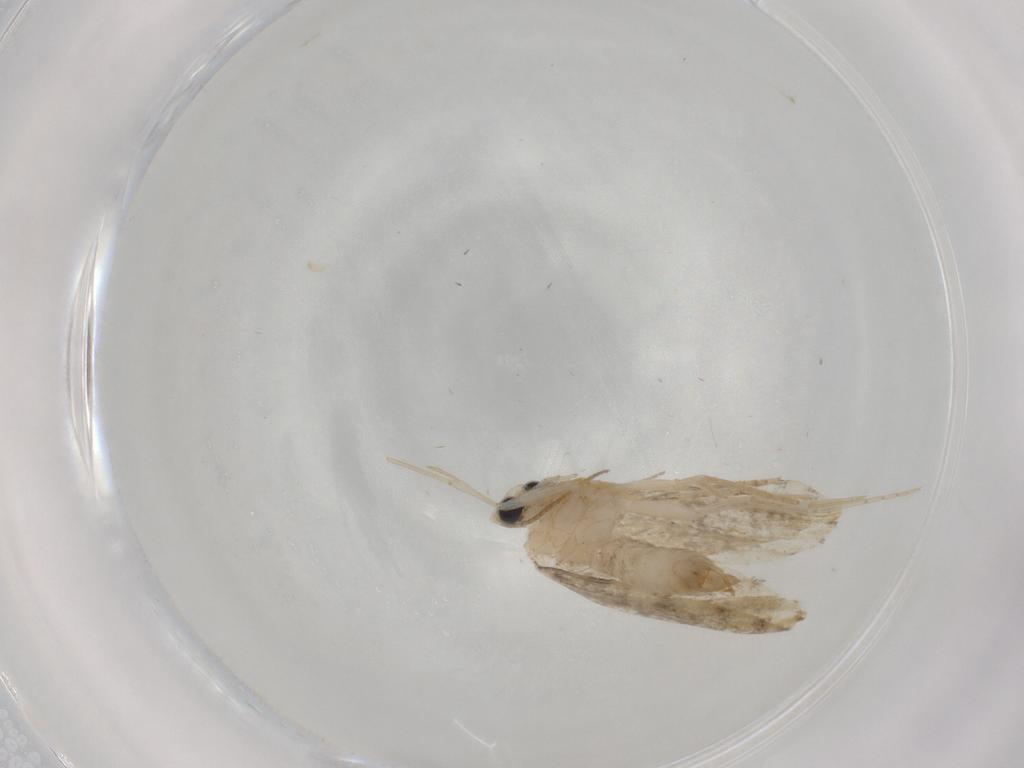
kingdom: Animalia
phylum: Arthropoda
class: Insecta
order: Lepidoptera
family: Psychidae
